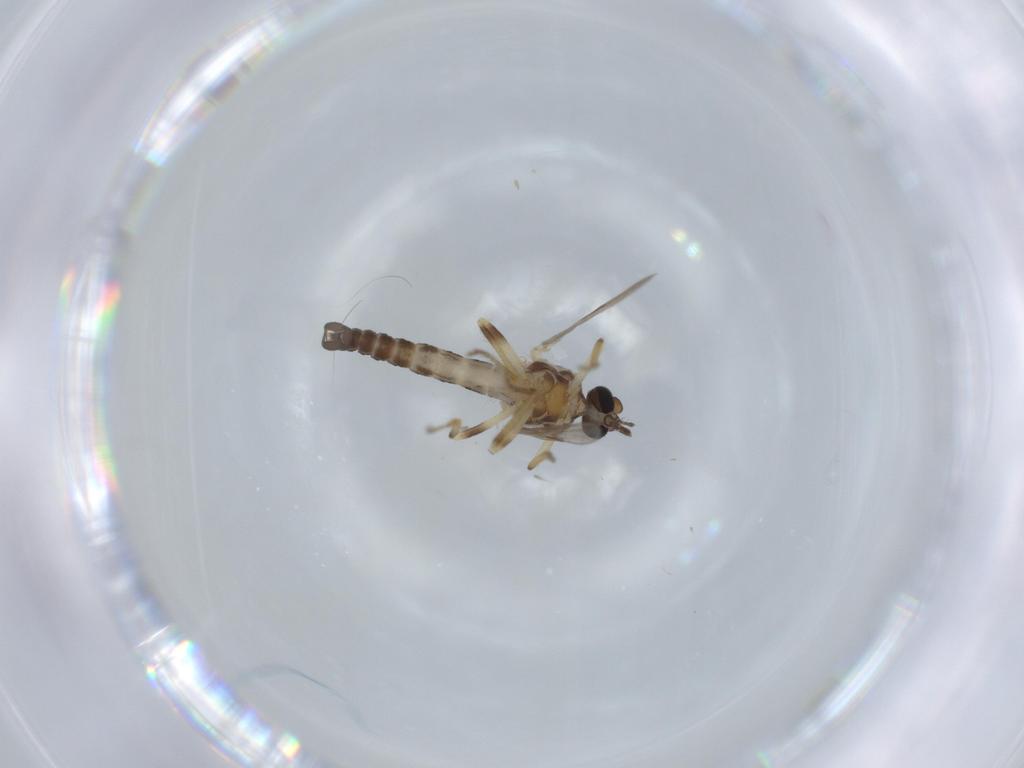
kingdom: Animalia
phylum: Arthropoda
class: Insecta
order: Diptera
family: Ceratopogonidae
